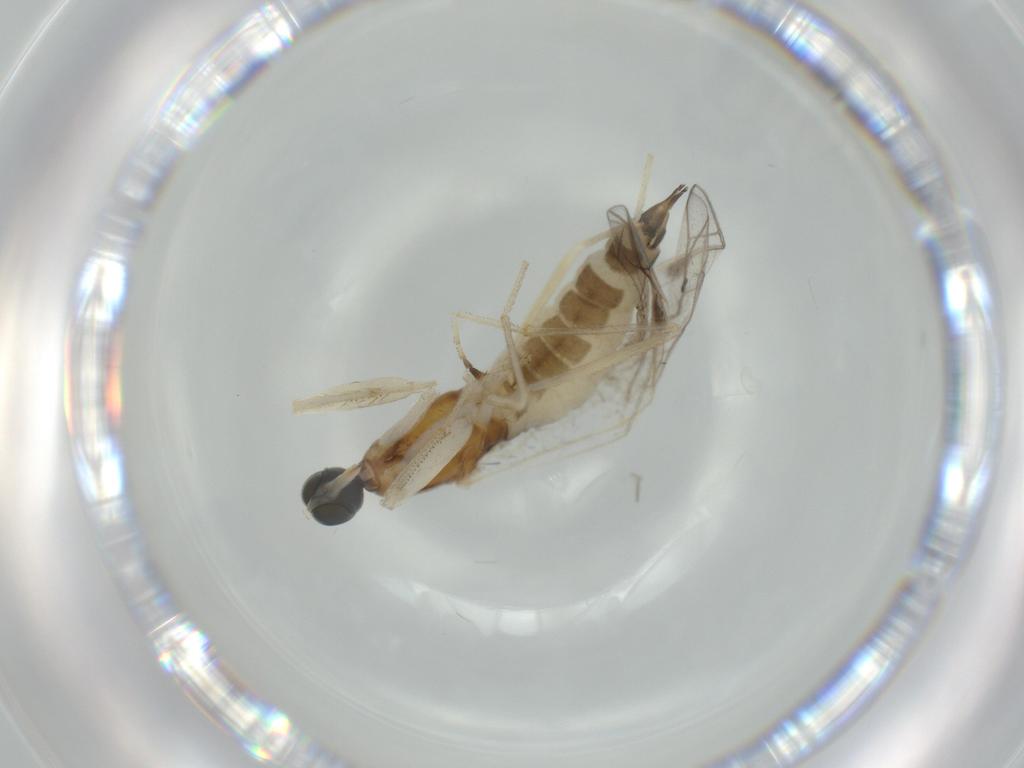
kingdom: Animalia
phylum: Arthropoda
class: Insecta
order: Diptera
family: Empididae
